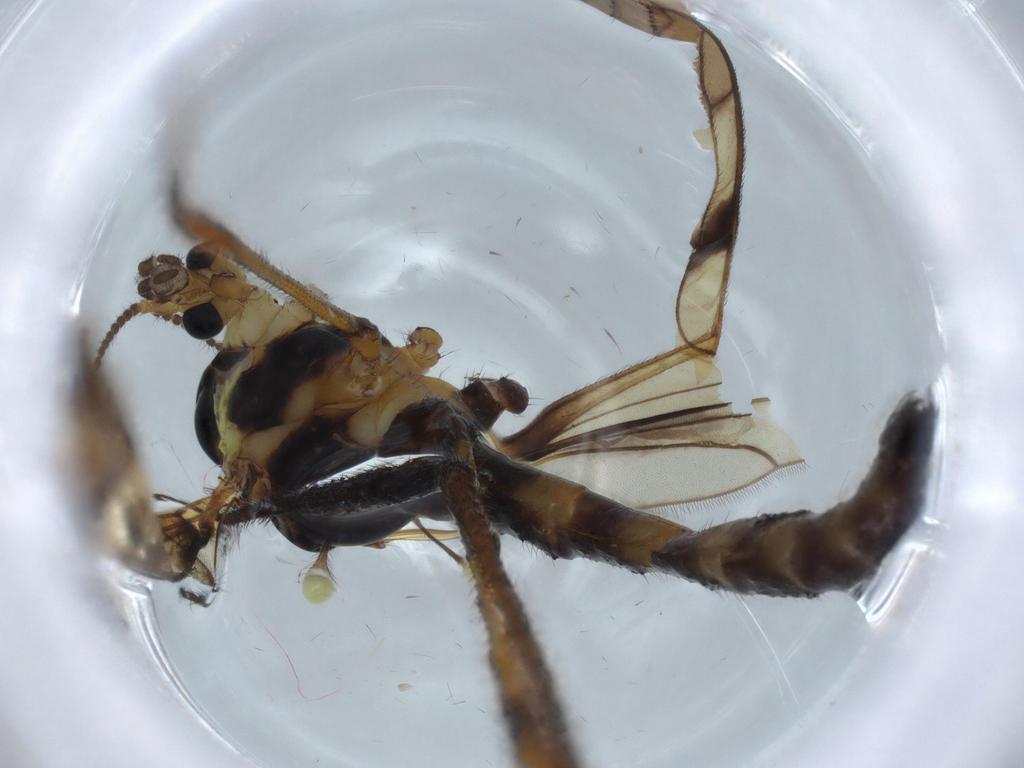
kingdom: Animalia
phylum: Arthropoda
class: Insecta
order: Diptera
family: Limoniidae
